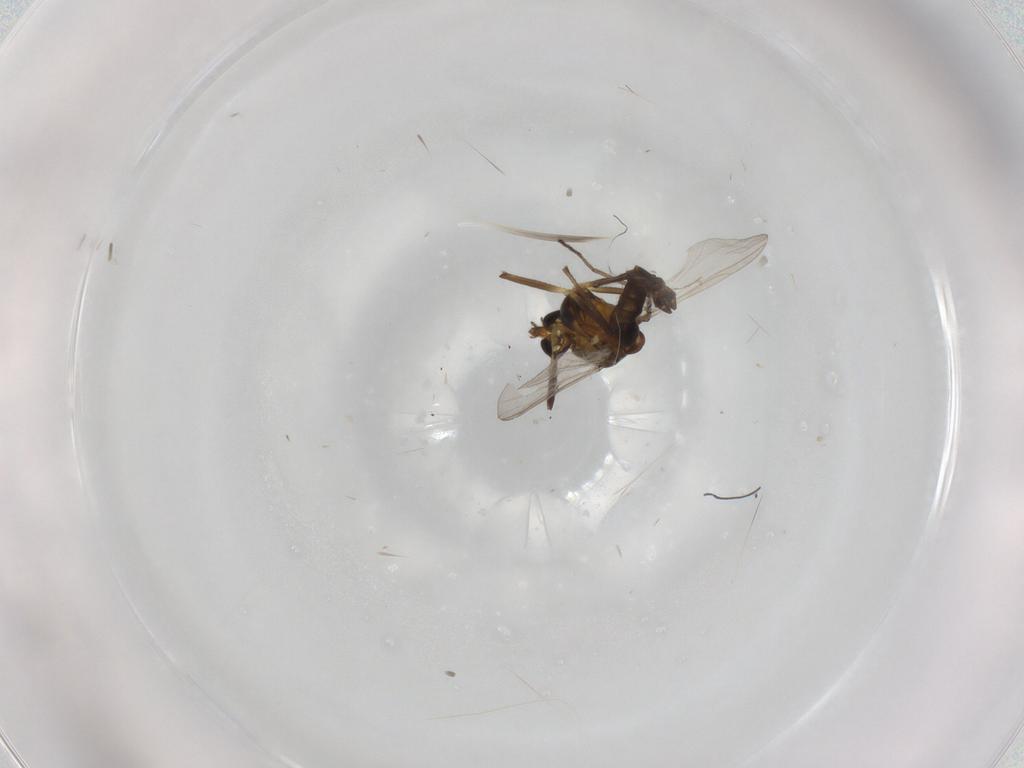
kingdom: Animalia
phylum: Arthropoda
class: Insecta
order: Diptera
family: Chironomidae
